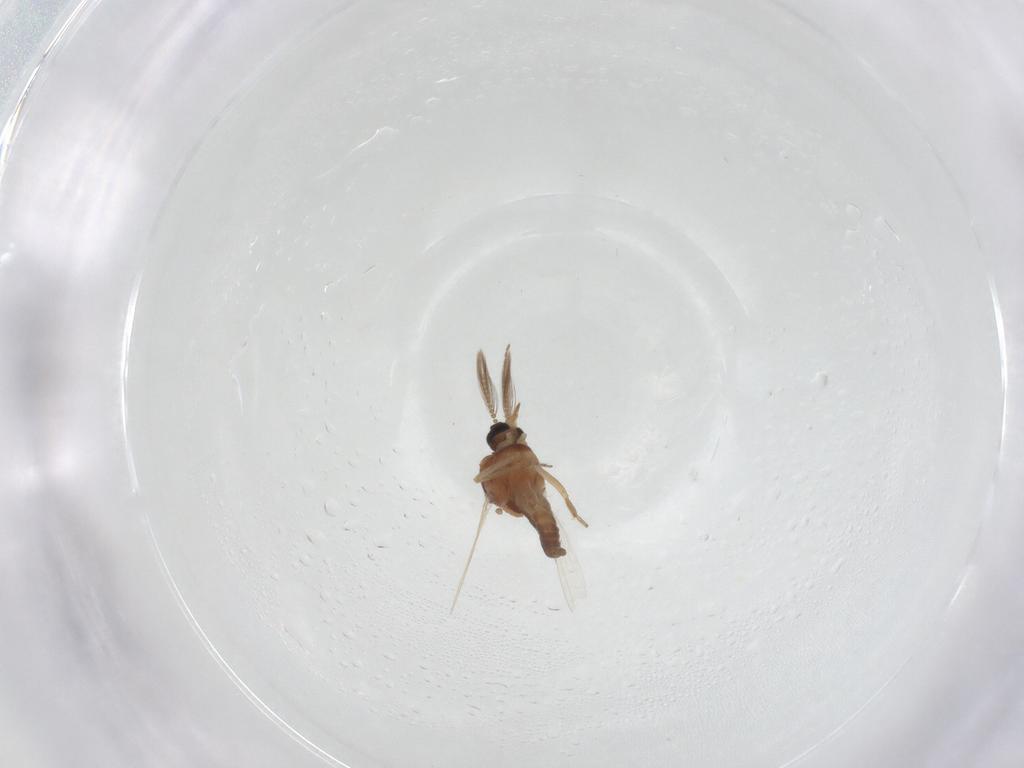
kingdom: Animalia
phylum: Arthropoda
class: Insecta
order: Diptera
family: Ceratopogonidae
